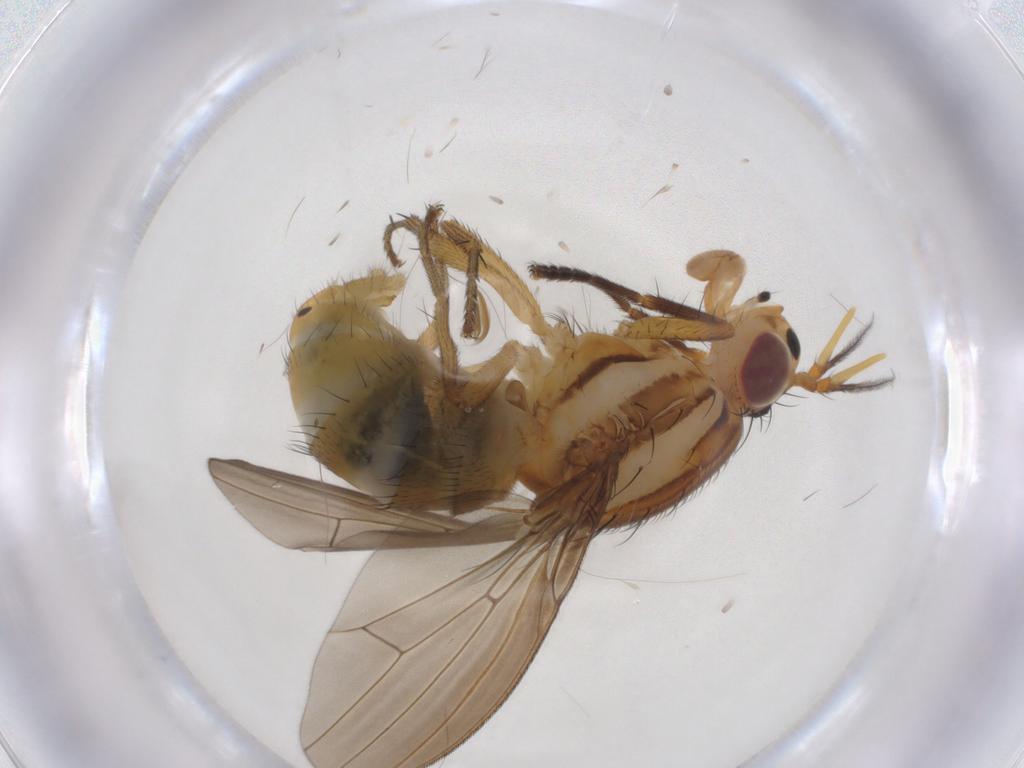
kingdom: Animalia
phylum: Arthropoda
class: Insecta
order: Diptera
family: Lauxaniidae
